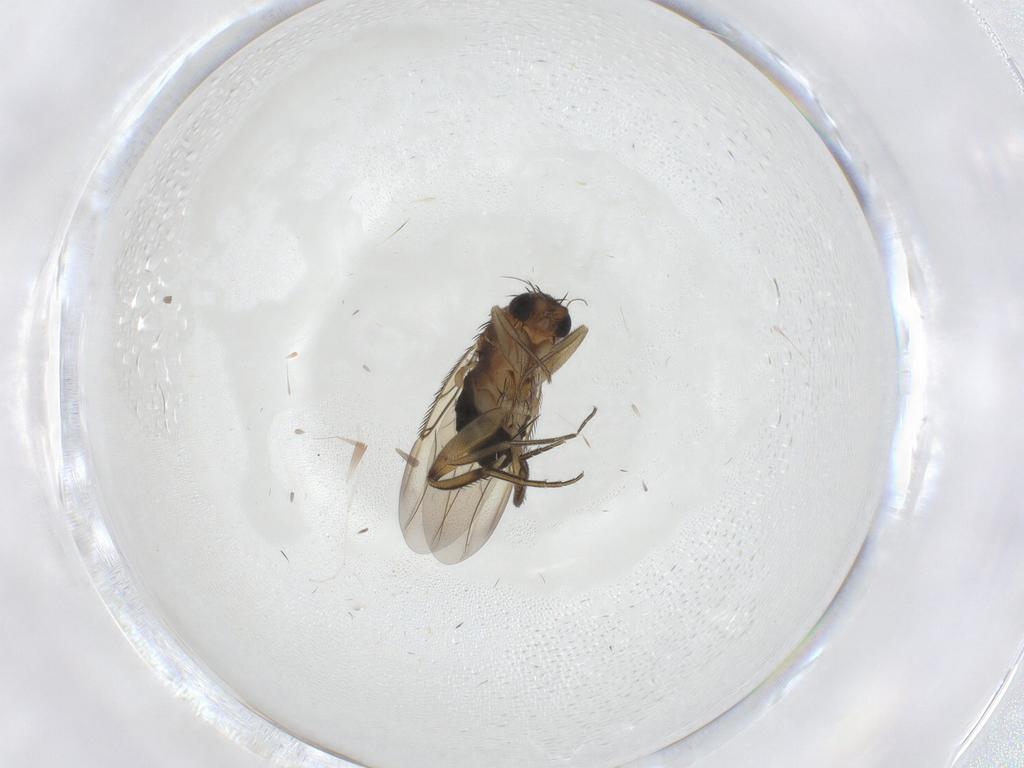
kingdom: Animalia
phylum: Arthropoda
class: Insecta
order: Diptera
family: Cecidomyiidae
